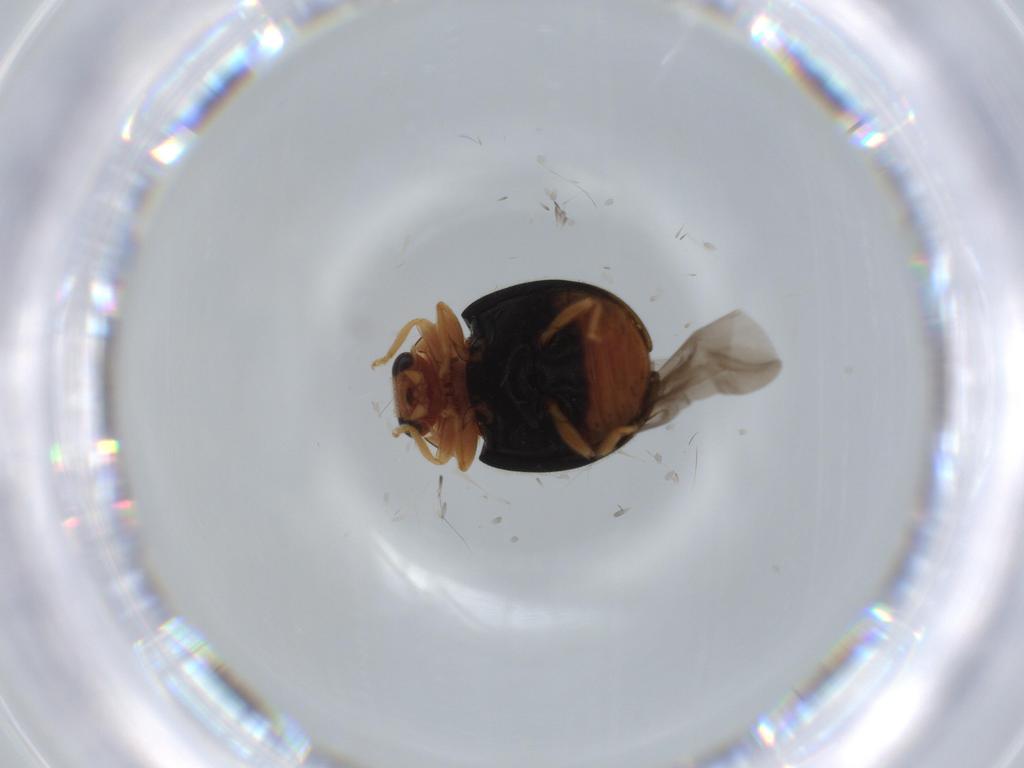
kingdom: Animalia
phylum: Arthropoda
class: Insecta
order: Coleoptera
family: Coccinellidae
